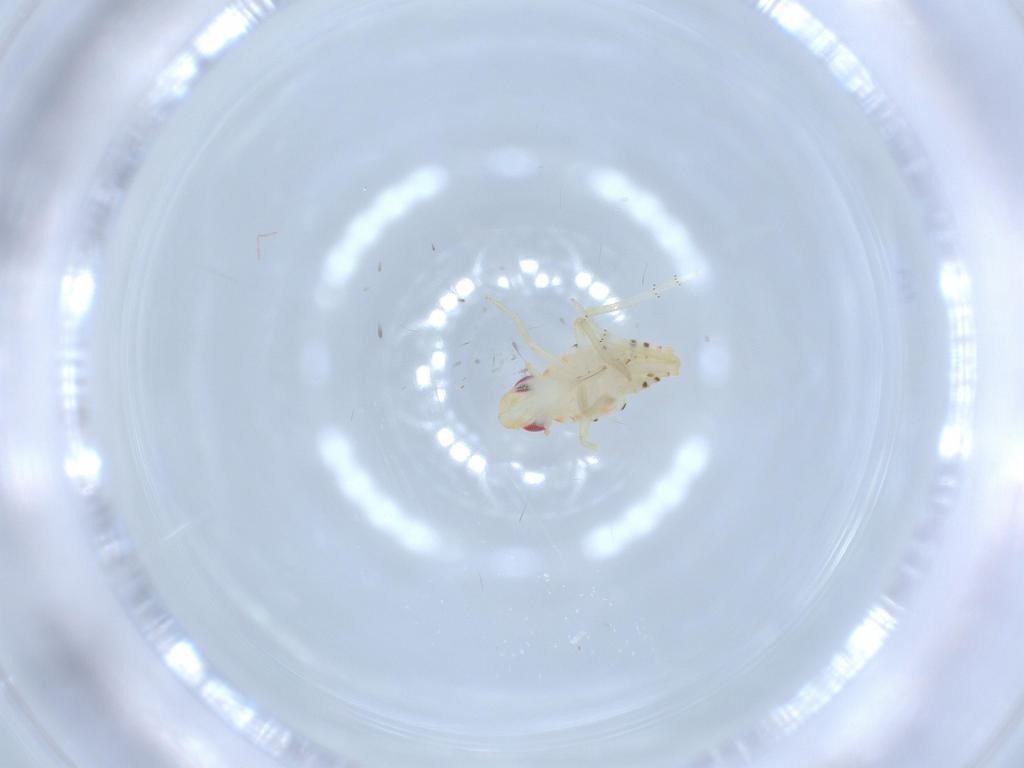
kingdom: Animalia
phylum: Arthropoda
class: Insecta
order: Hemiptera
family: Tropiduchidae
